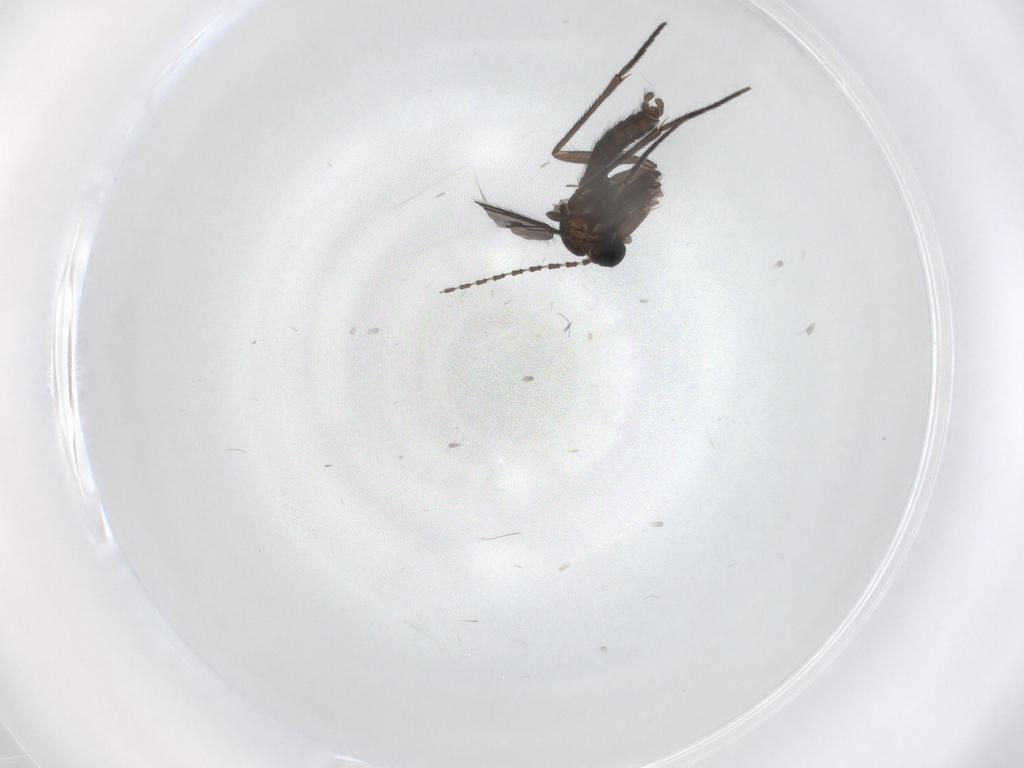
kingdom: Animalia
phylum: Arthropoda
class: Insecta
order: Diptera
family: Sciaridae
